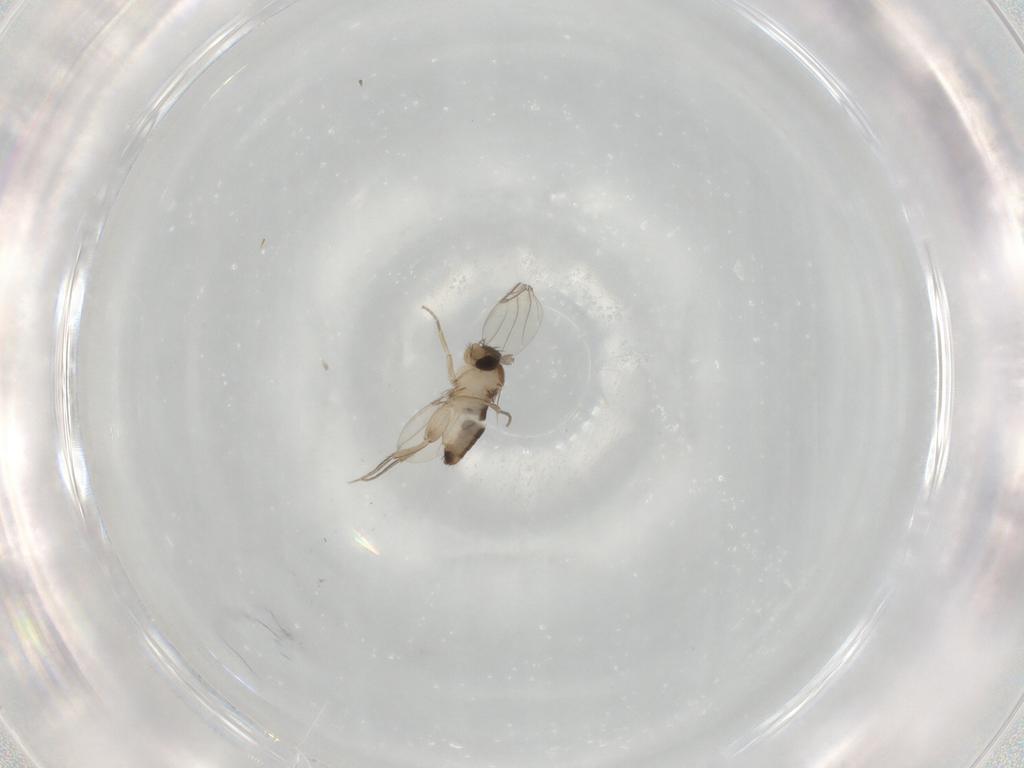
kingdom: Animalia
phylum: Arthropoda
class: Insecta
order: Diptera
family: Phoridae
